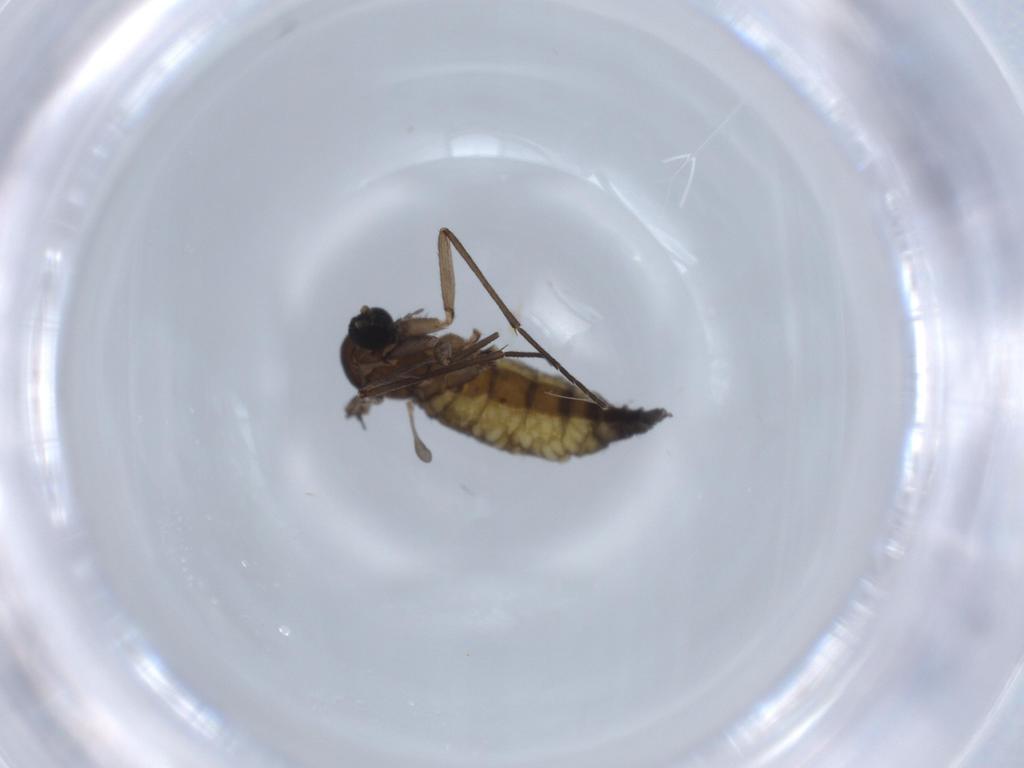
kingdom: Animalia
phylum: Arthropoda
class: Insecta
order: Diptera
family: Sciaridae
